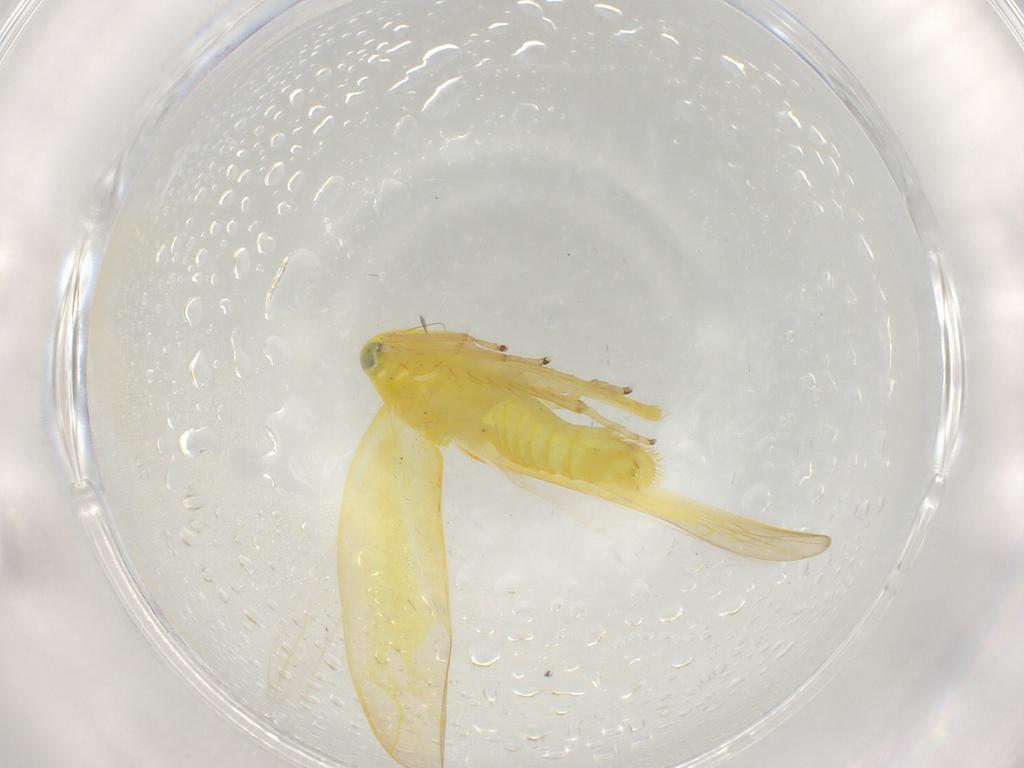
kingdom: Animalia
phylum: Arthropoda
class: Insecta
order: Hemiptera
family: Cicadellidae
